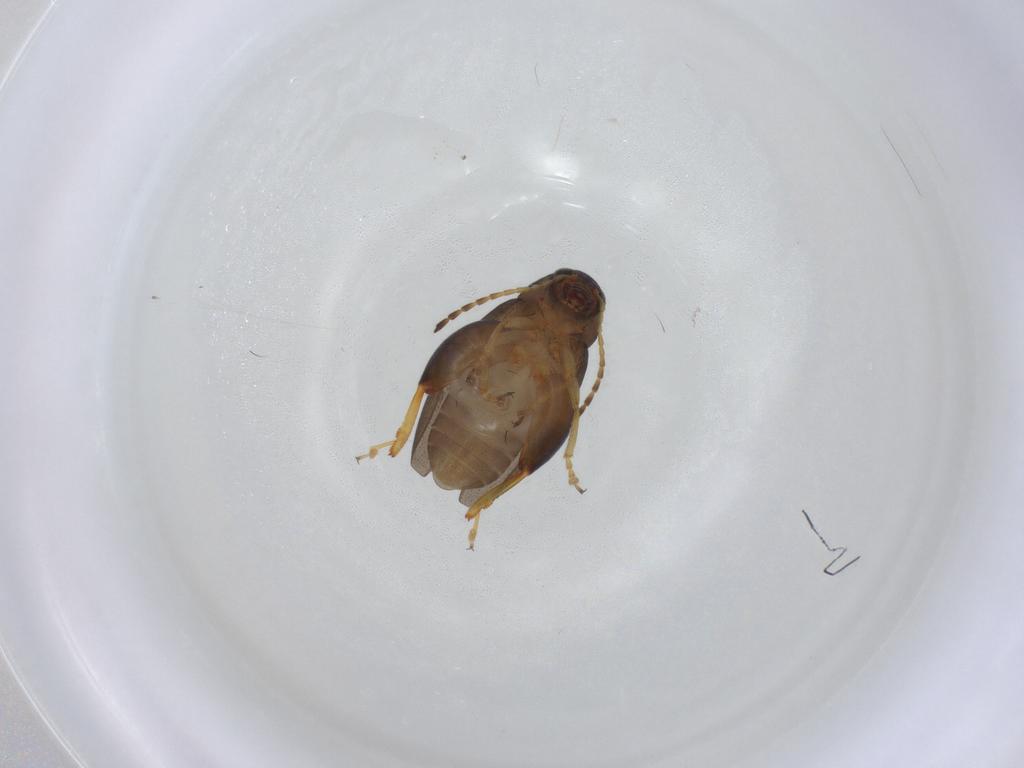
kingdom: Animalia
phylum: Arthropoda
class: Insecta
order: Coleoptera
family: Chrysomelidae
